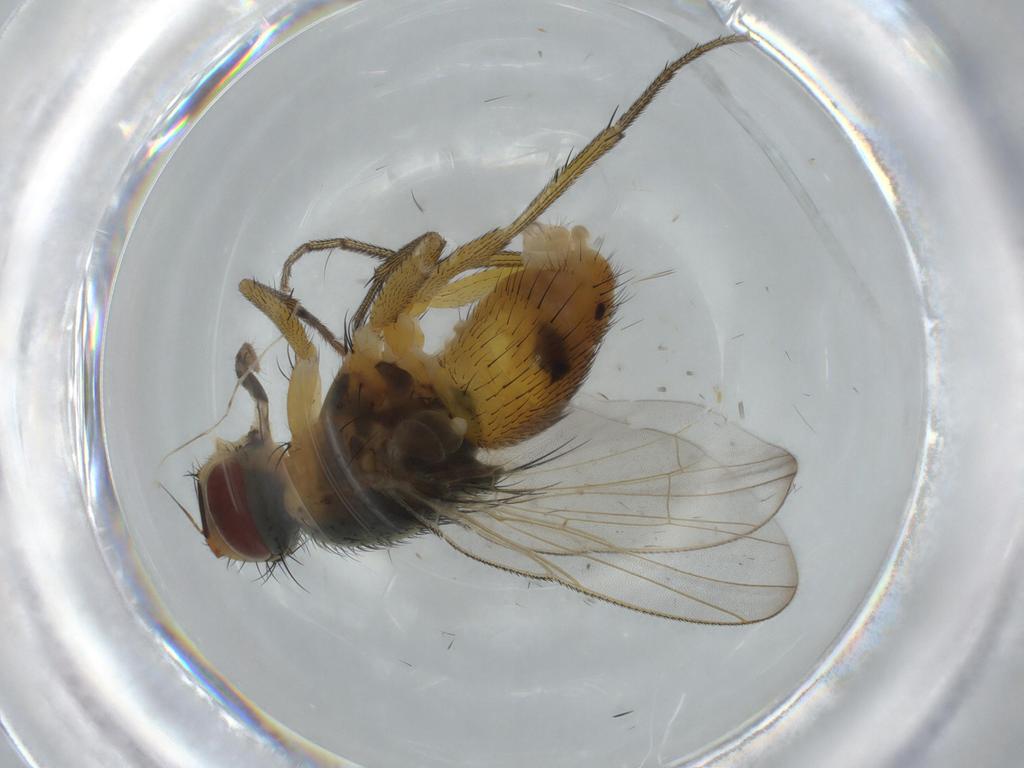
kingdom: Animalia
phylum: Arthropoda
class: Insecta
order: Diptera
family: Muscidae
